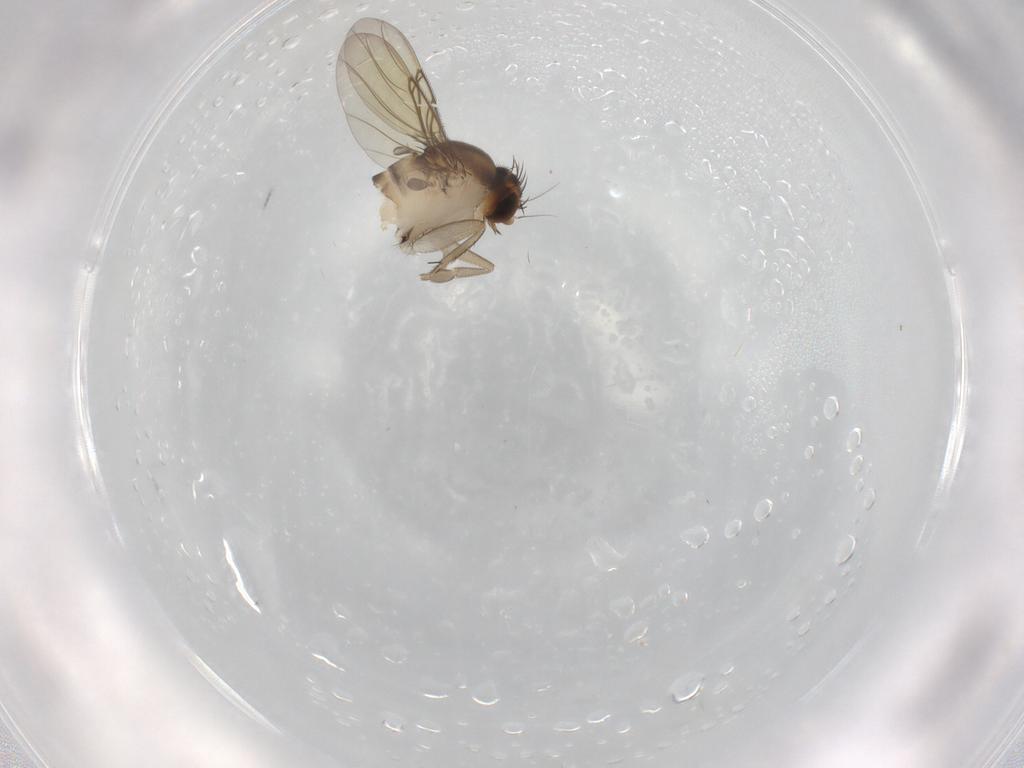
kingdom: Animalia
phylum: Arthropoda
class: Insecta
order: Diptera
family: Phoridae
